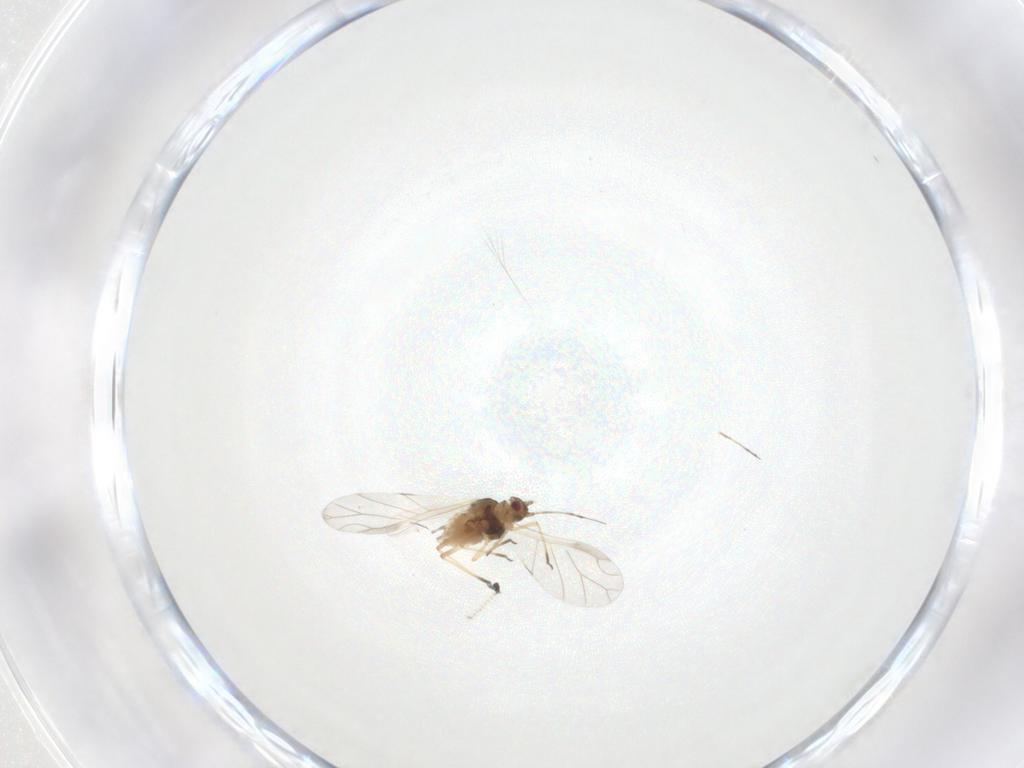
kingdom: Animalia
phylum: Arthropoda
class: Insecta
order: Hemiptera
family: Aphididae
